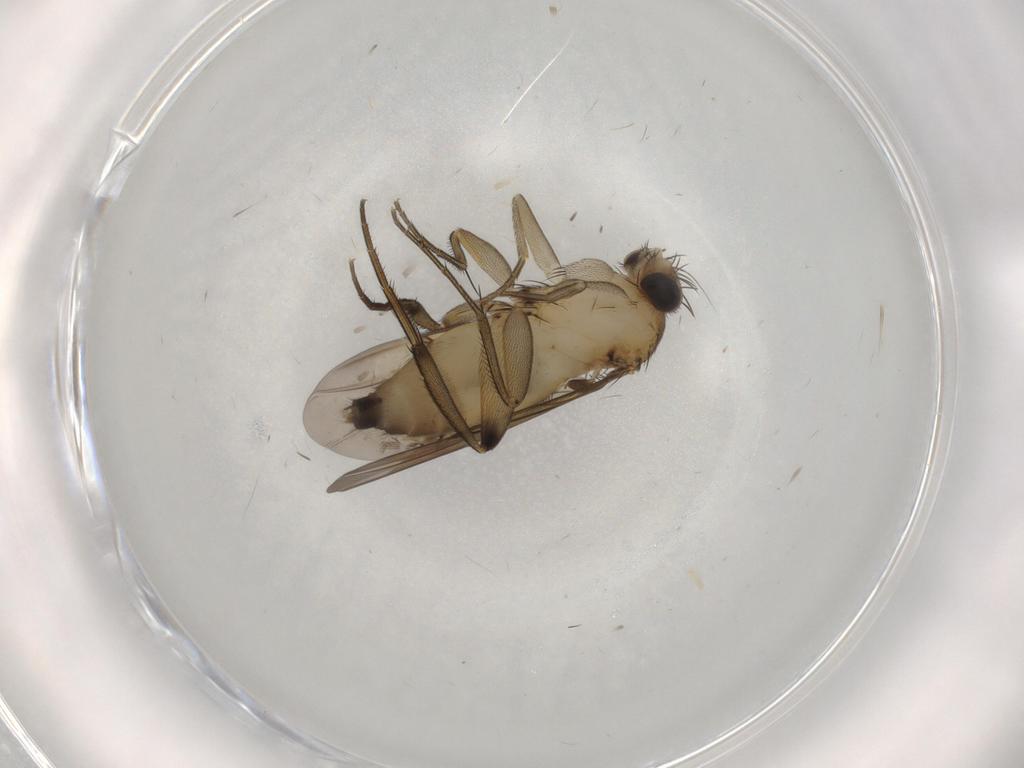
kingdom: Animalia
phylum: Arthropoda
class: Insecta
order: Diptera
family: Phoridae
